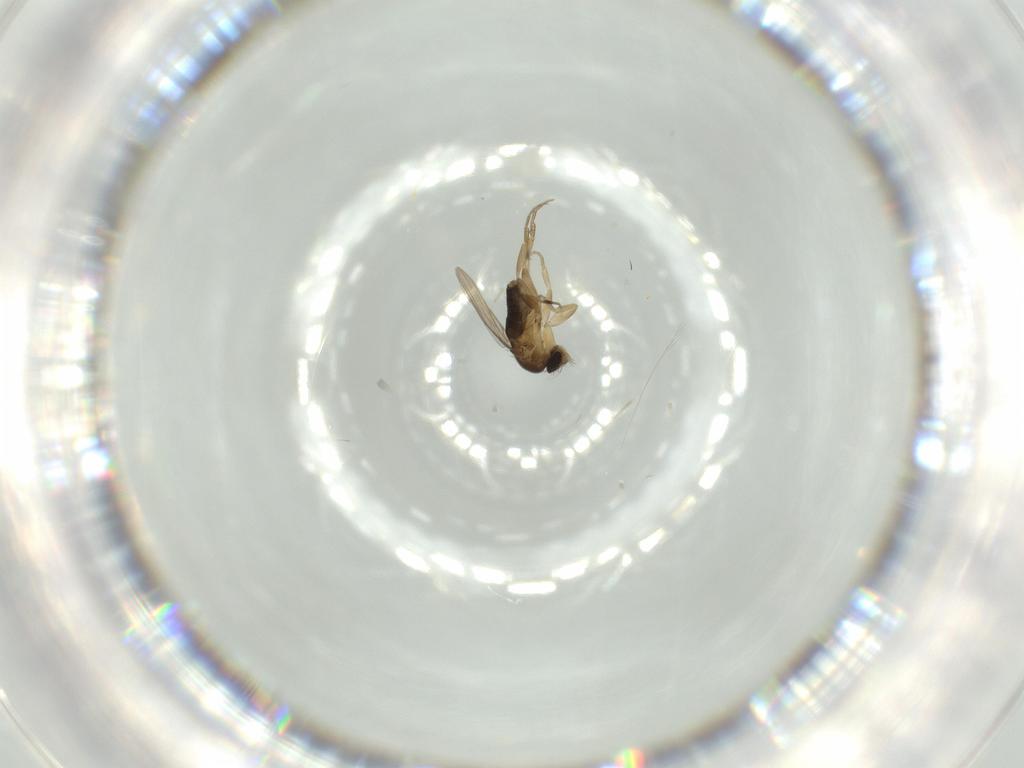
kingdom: Animalia
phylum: Arthropoda
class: Insecta
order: Diptera
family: Phoridae
